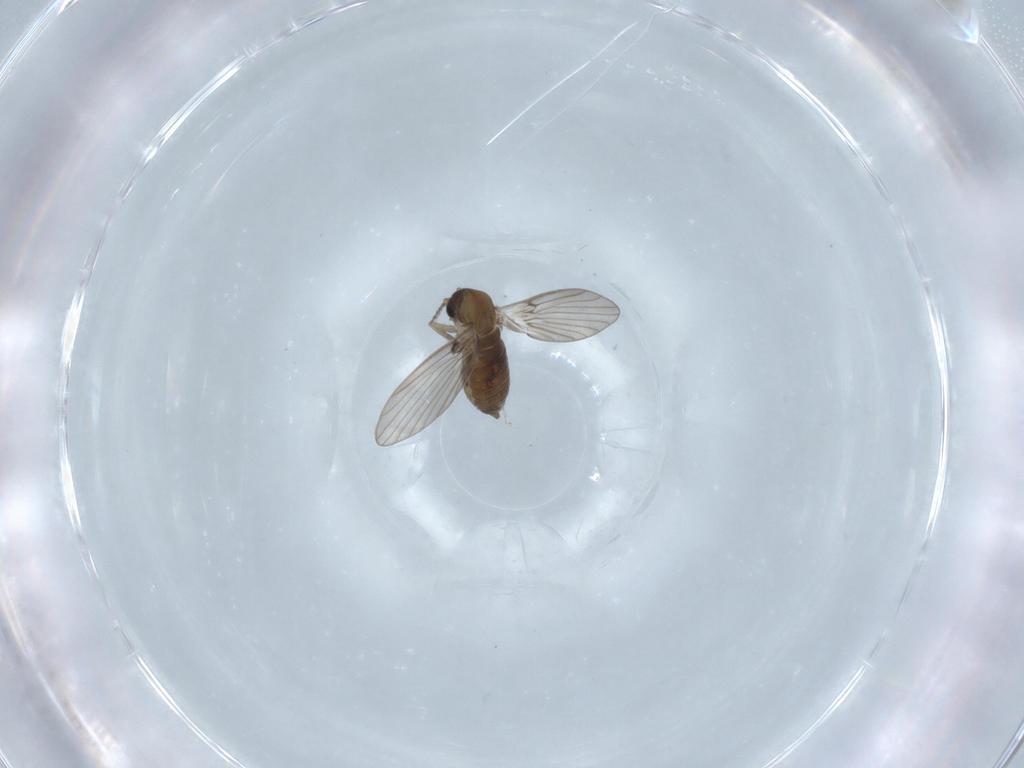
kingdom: Animalia
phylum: Arthropoda
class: Insecta
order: Diptera
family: Cecidomyiidae
